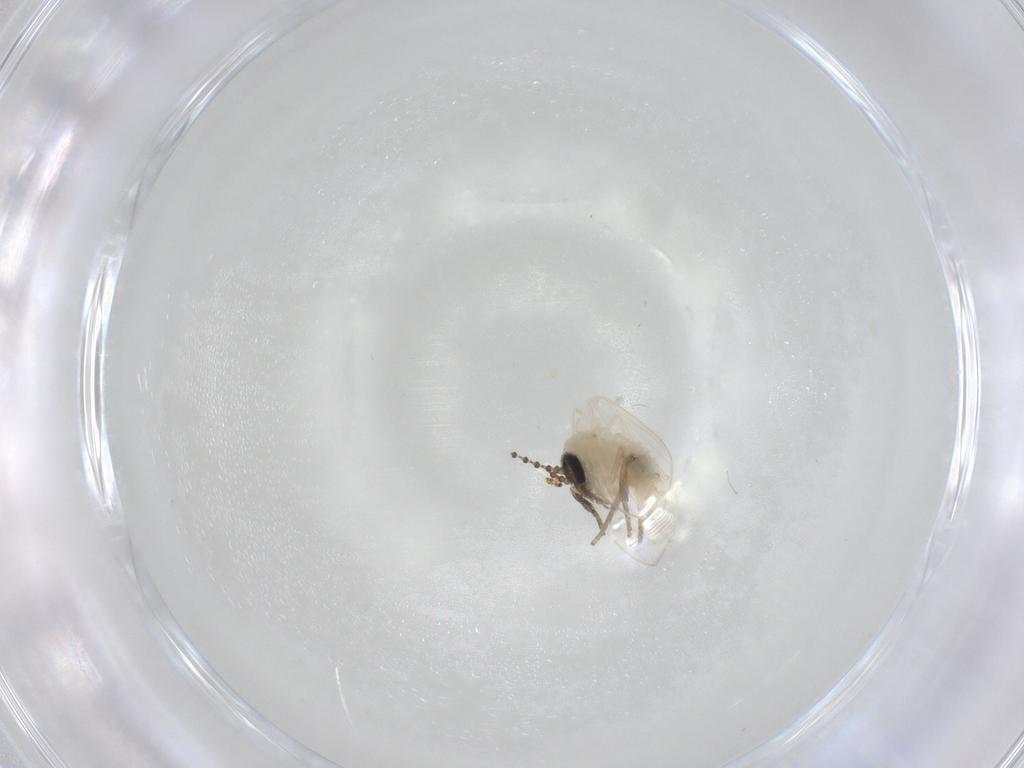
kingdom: Animalia
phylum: Arthropoda
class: Insecta
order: Diptera
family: Psychodidae
